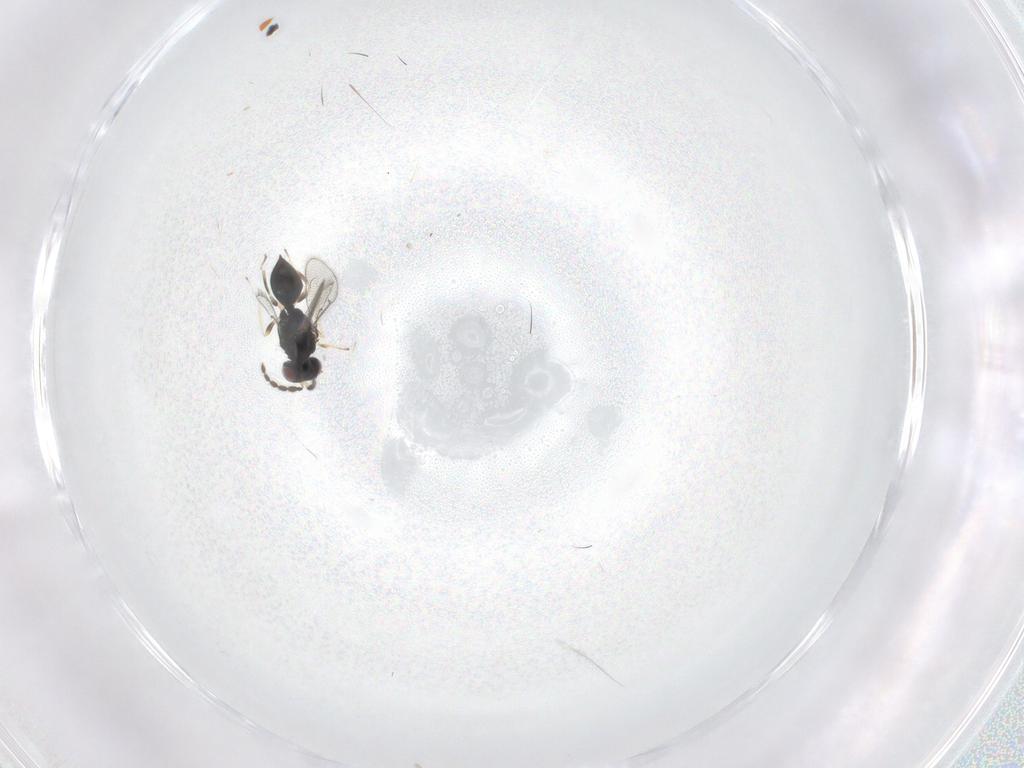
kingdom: Animalia
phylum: Arthropoda
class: Insecta
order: Hymenoptera
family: Eulophidae
